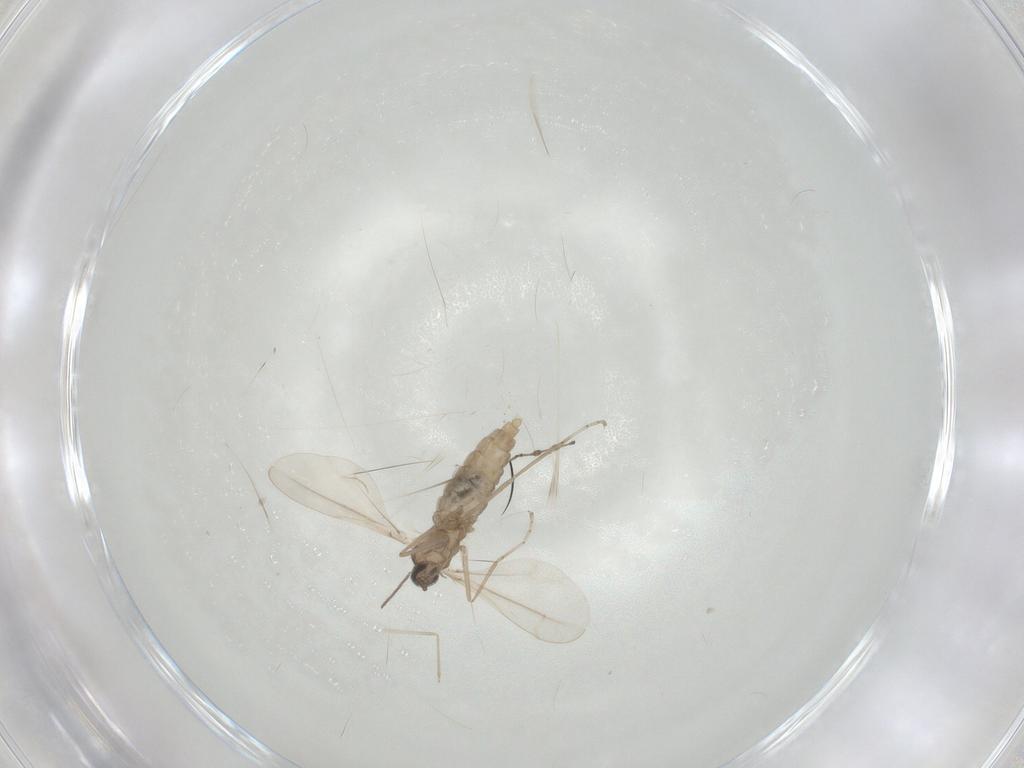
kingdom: Animalia
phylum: Arthropoda
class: Insecta
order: Diptera
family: Cecidomyiidae
